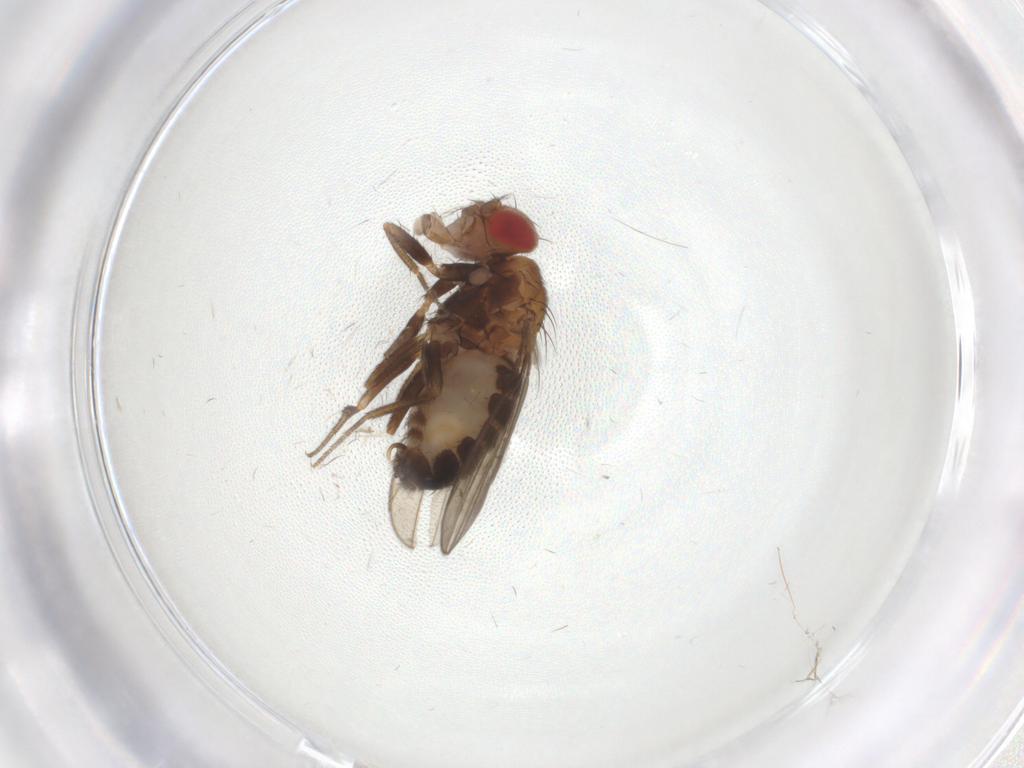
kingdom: Animalia
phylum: Arthropoda
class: Insecta
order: Diptera
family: Drosophilidae
